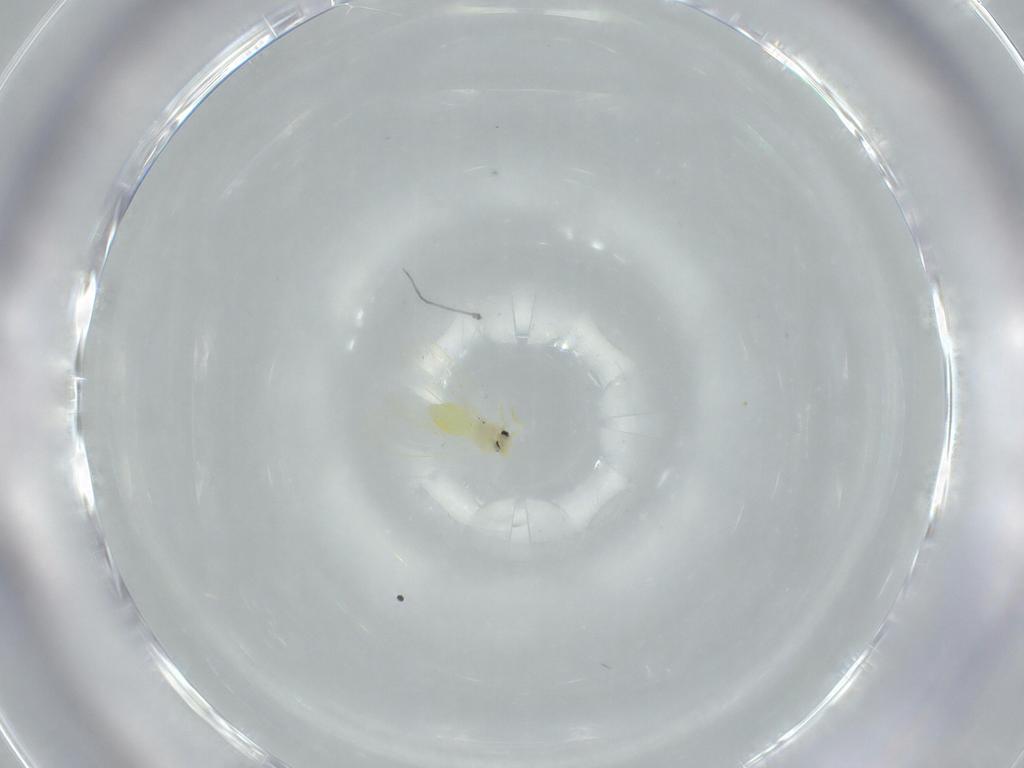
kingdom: Animalia
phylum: Arthropoda
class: Insecta
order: Hemiptera
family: Aleyrodidae
